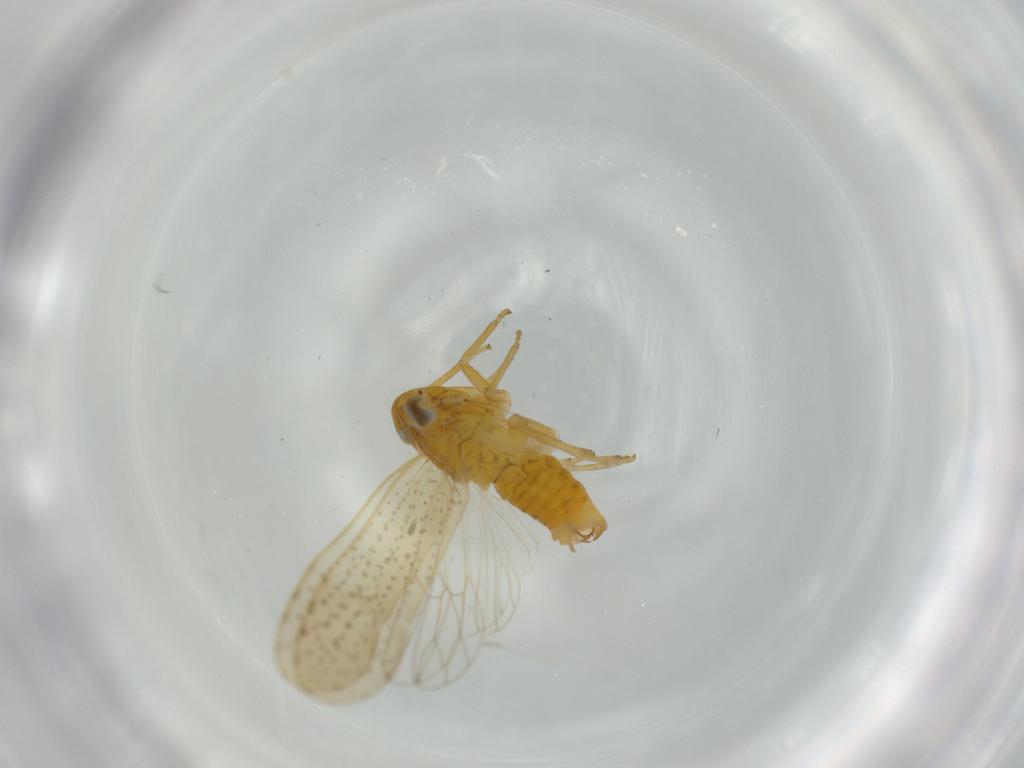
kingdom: Animalia
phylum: Arthropoda
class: Insecta
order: Hemiptera
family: Delphacidae
